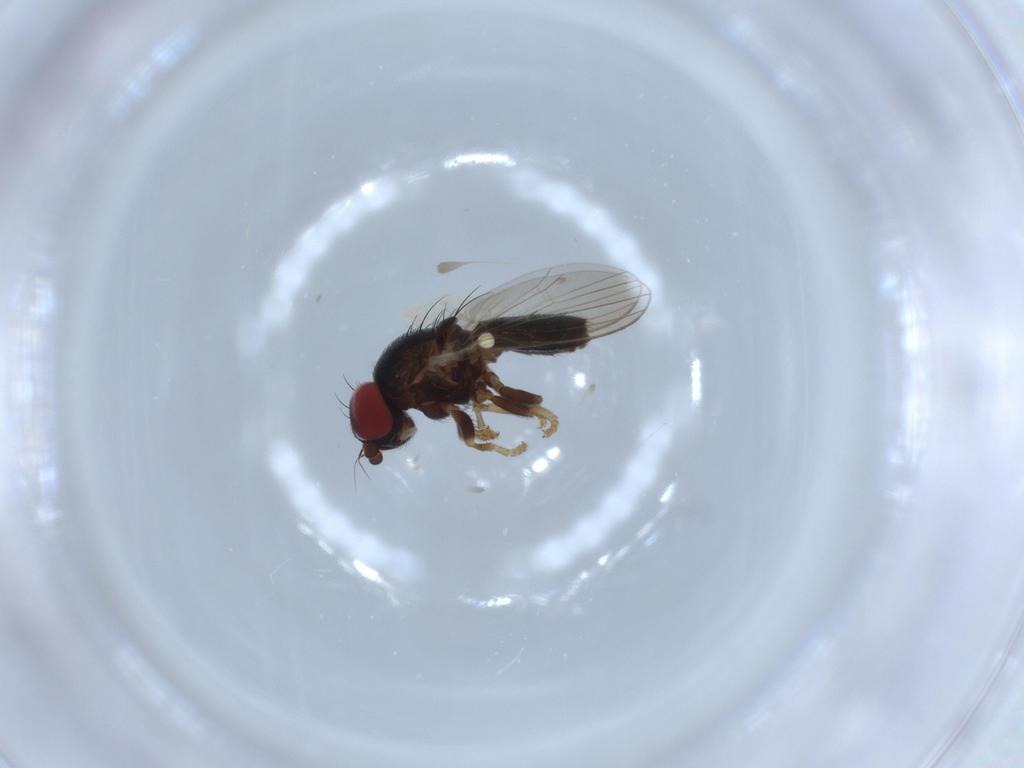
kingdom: Animalia
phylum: Arthropoda
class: Insecta
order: Diptera
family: Chamaemyiidae
